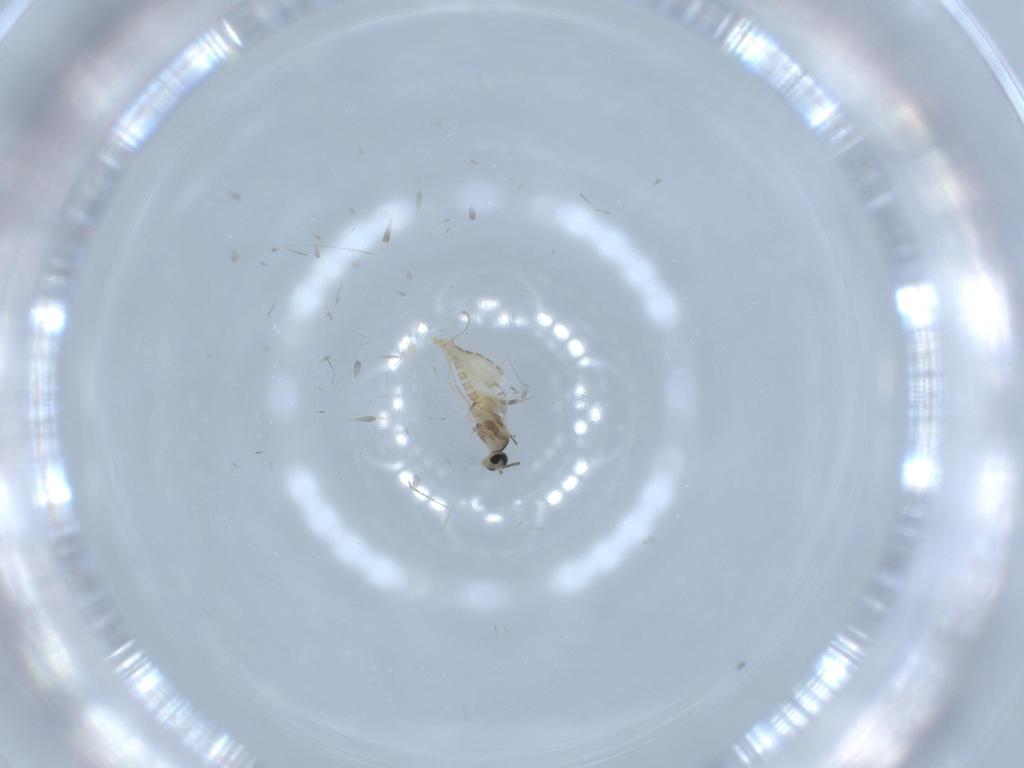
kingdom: Animalia
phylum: Arthropoda
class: Insecta
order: Diptera
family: Cecidomyiidae
